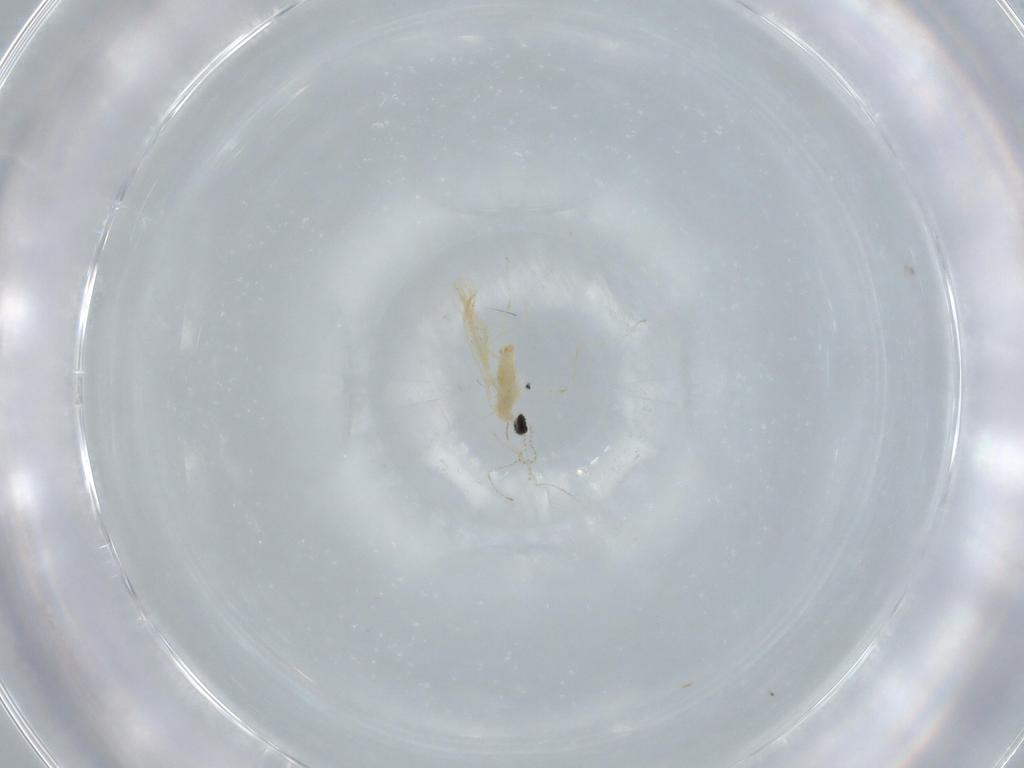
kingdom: Animalia
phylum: Arthropoda
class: Insecta
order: Diptera
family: Cecidomyiidae
